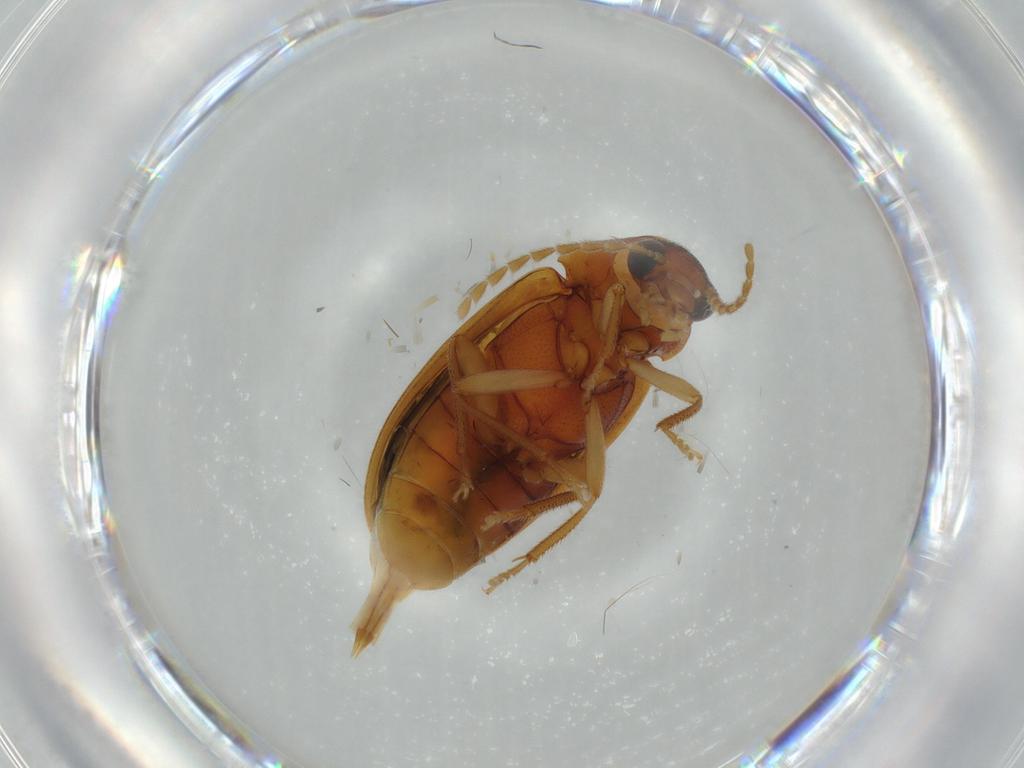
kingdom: Animalia
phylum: Arthropoda
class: Insecta
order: Coleoptera
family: Ptilodactylidae
